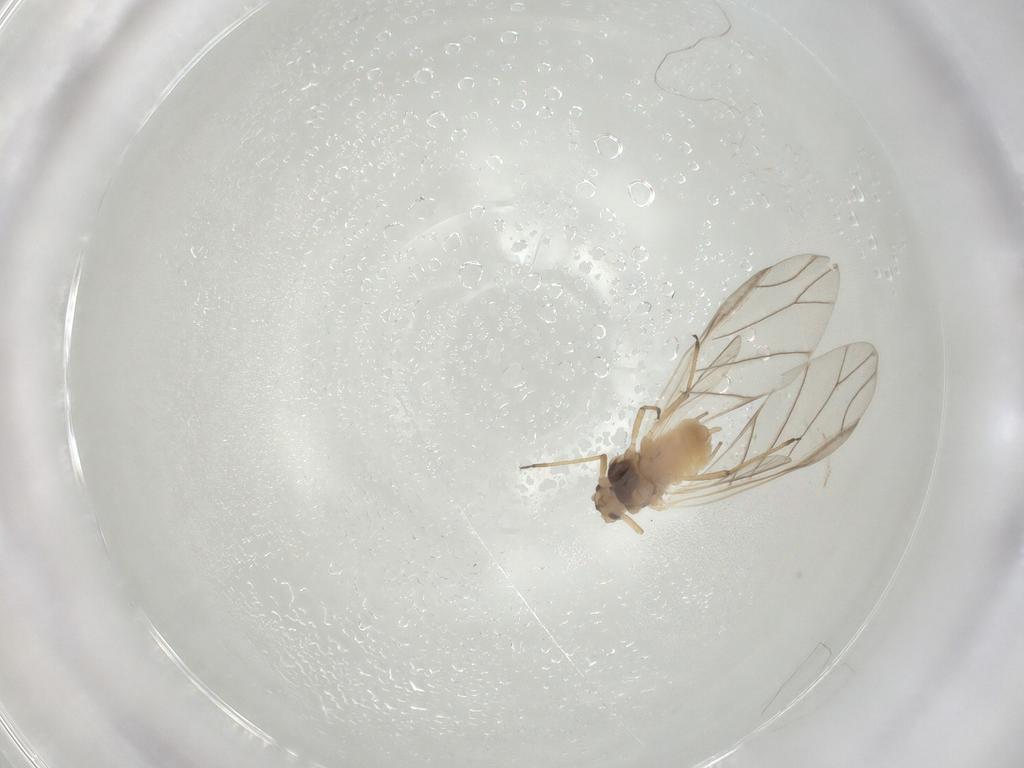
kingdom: Animalia
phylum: Arthropoda
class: Insecta
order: Hemiptera
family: Aphididae
